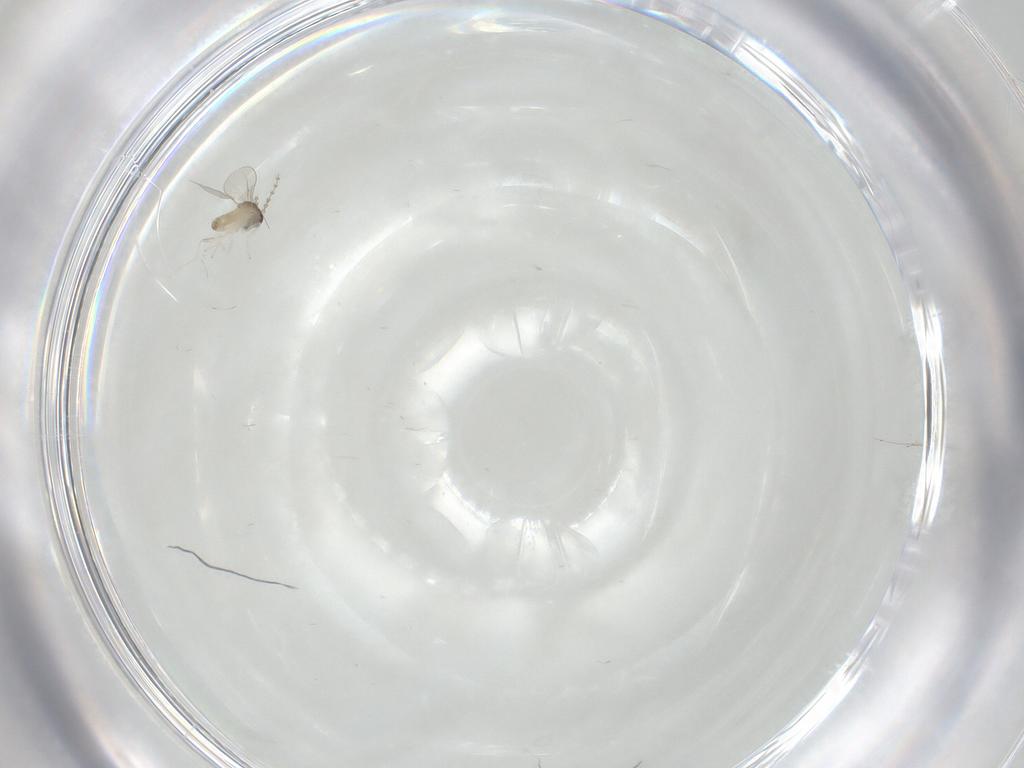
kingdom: Animalia
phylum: Arthropoda
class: Insecta
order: Diptera
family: Cecidomyiidae
